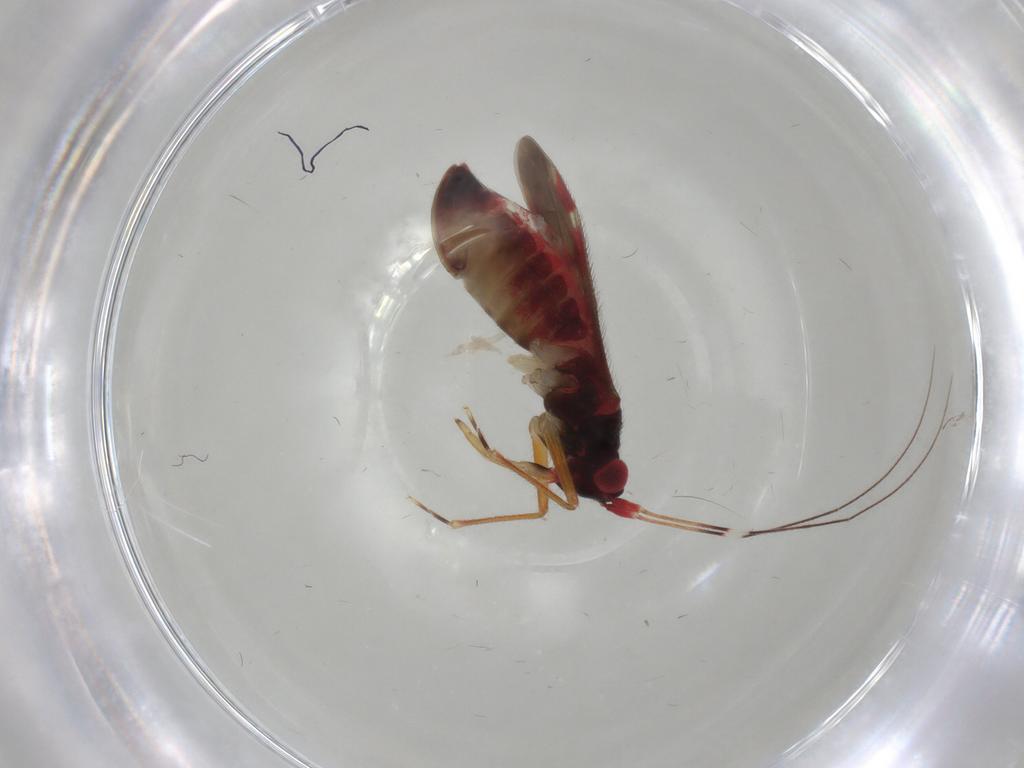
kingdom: Animalia
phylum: Arthropoda
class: Insecta
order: Hemiptera
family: Miridae
